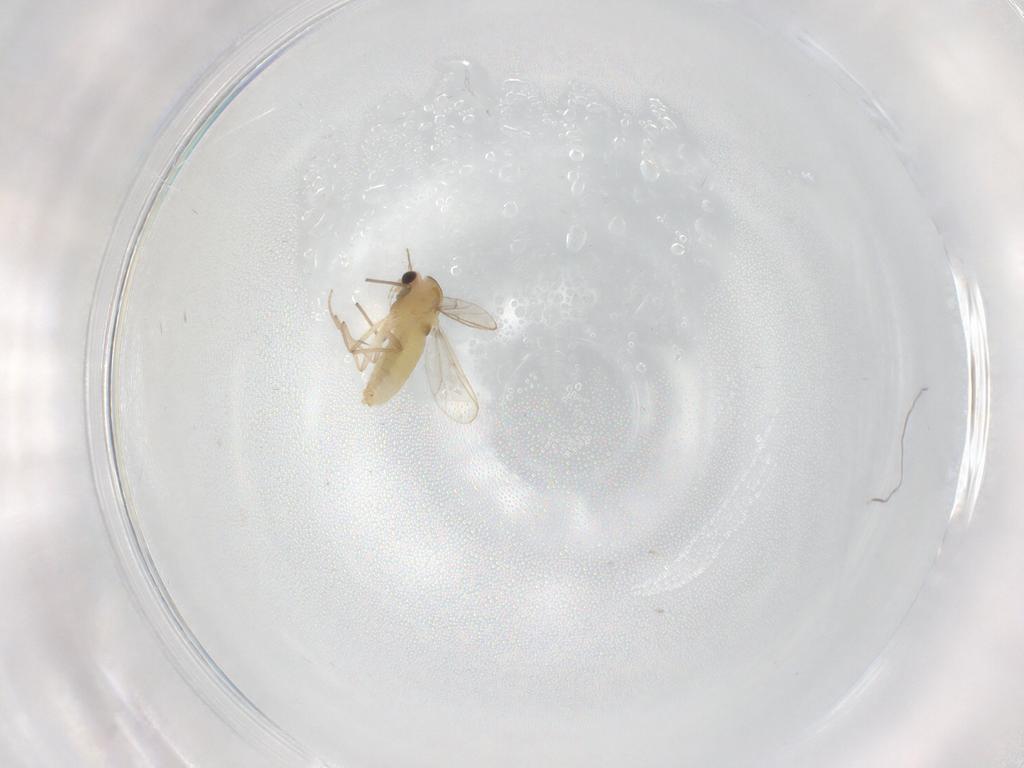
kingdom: Animalia
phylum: Arthropoda
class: Insecta
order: Diptera
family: Chironomidae
